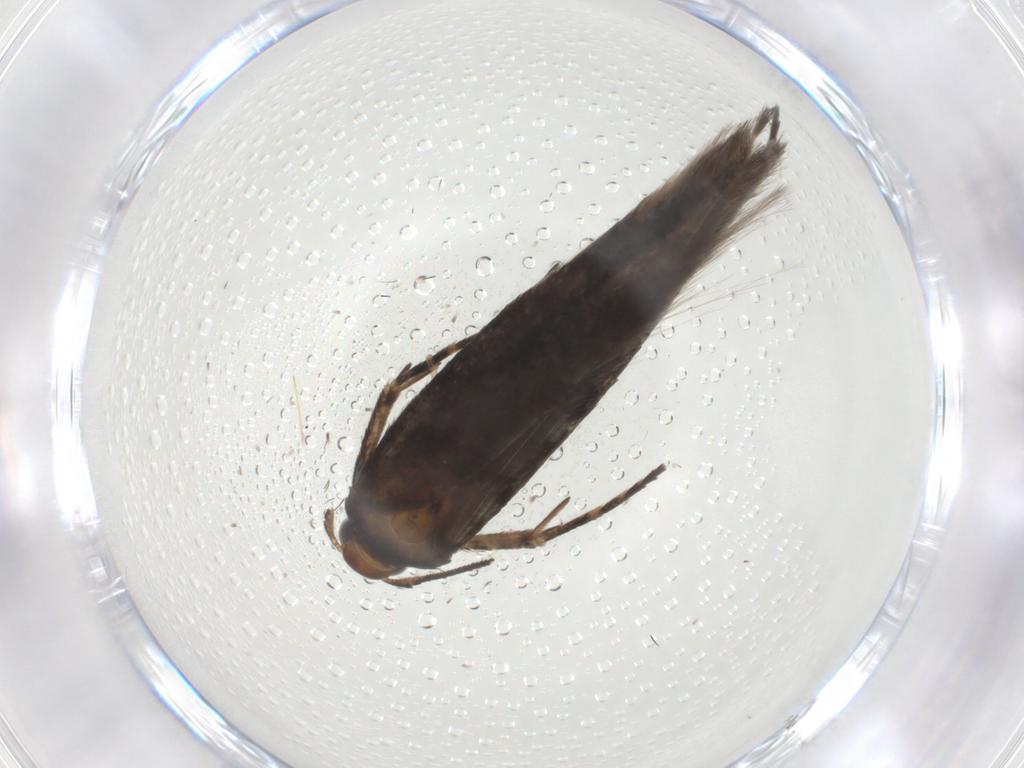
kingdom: Animalia
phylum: Arthropoda
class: Insecta
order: Lepidoptera
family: Gelechiidae
